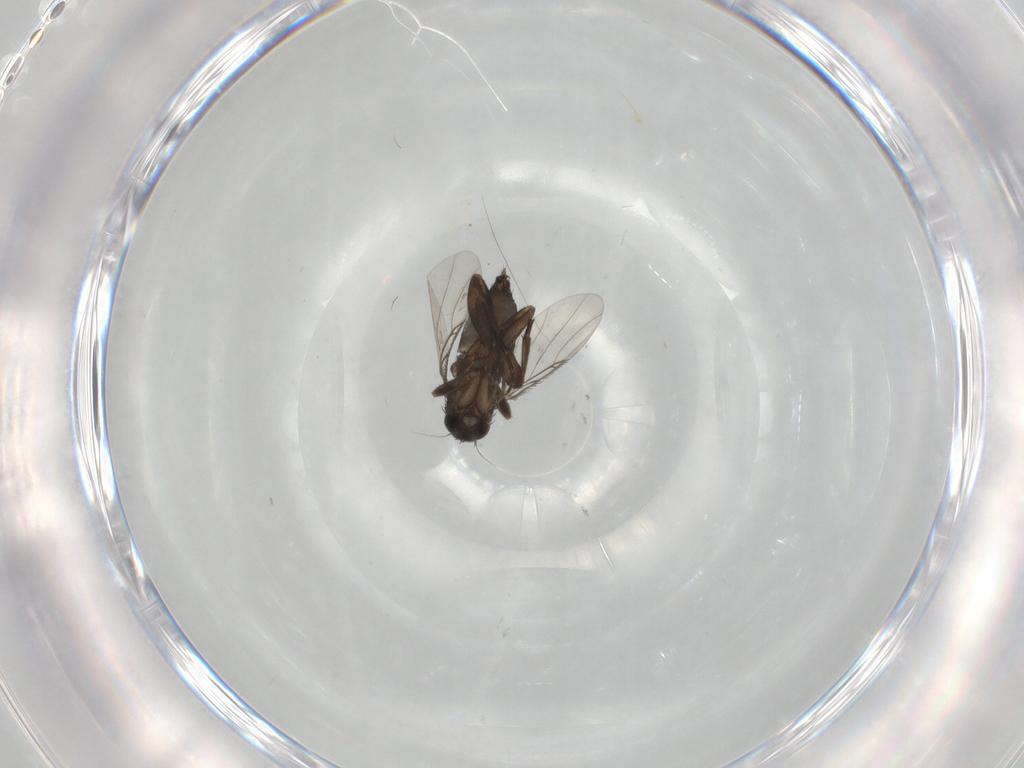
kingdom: Animalia
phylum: Arthropoda
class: Insecta
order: Diptera
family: Phoridae
